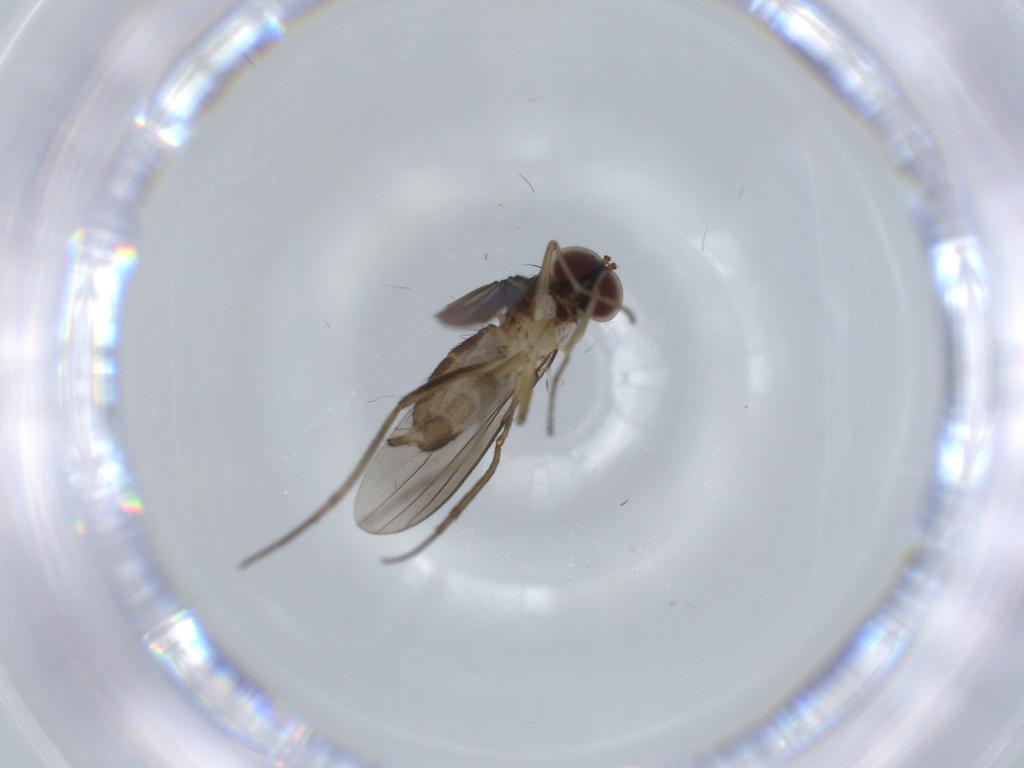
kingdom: Animalia
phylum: Arthropoda
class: Insecta
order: Diptera
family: Dolichopodidae
